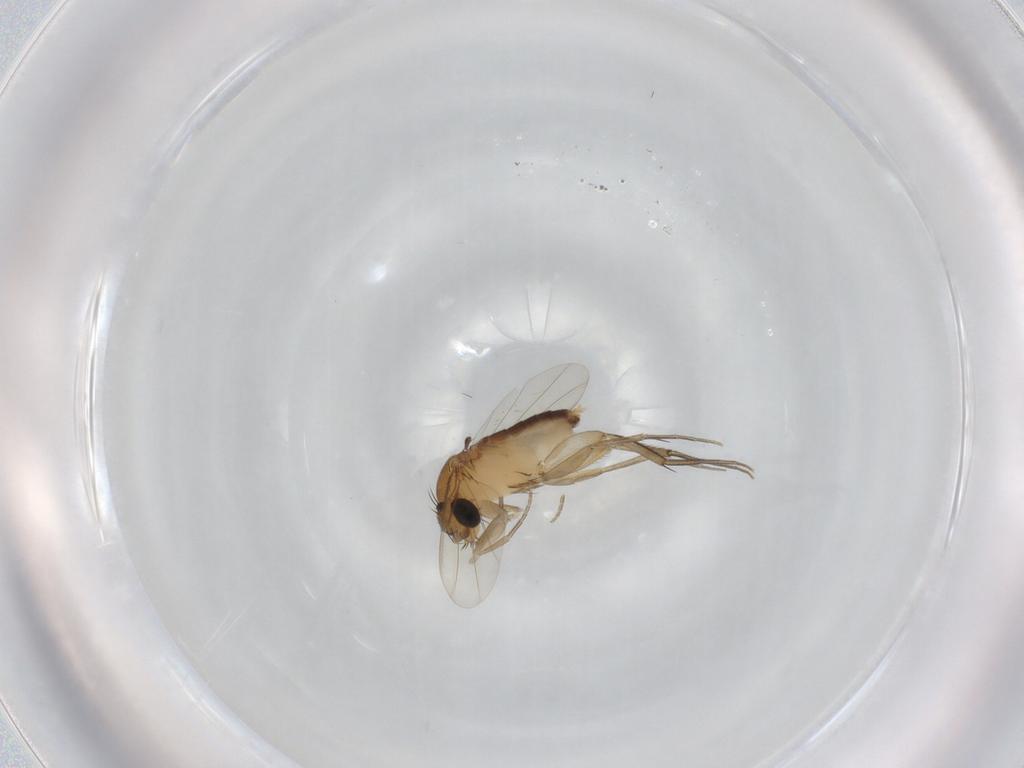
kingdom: Animalia
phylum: Arthropoda
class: Insecta
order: Diptera
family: Phoridae
